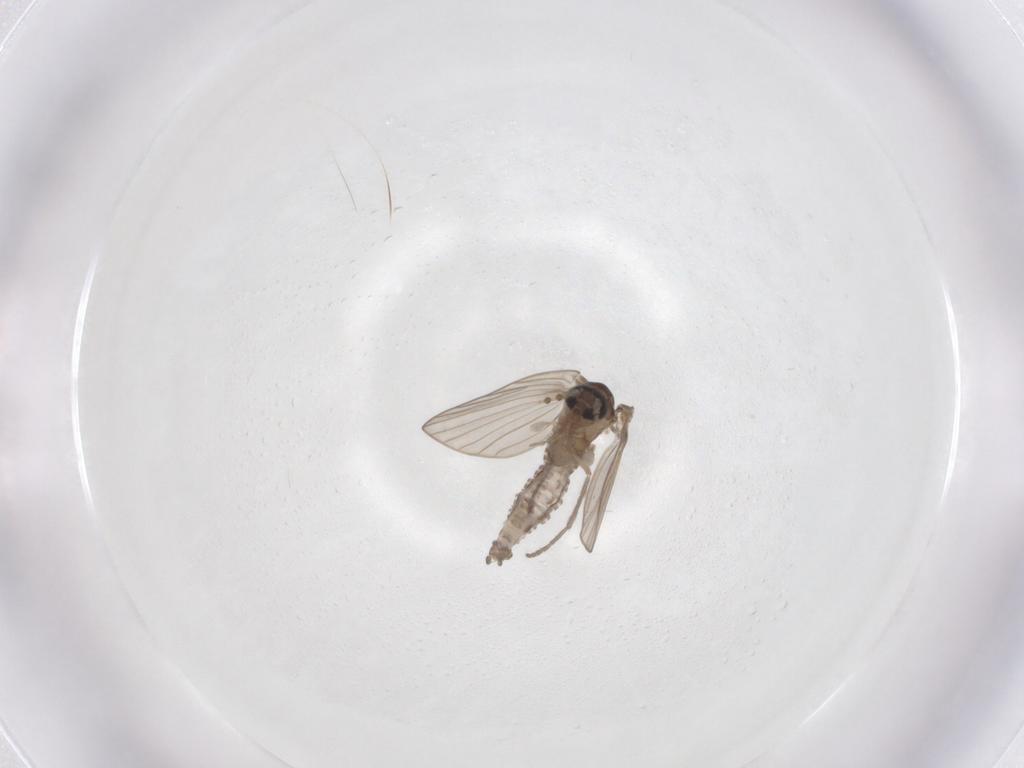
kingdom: Animalia
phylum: Arthropoda
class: Insecta
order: Diptera
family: Chironomidae
